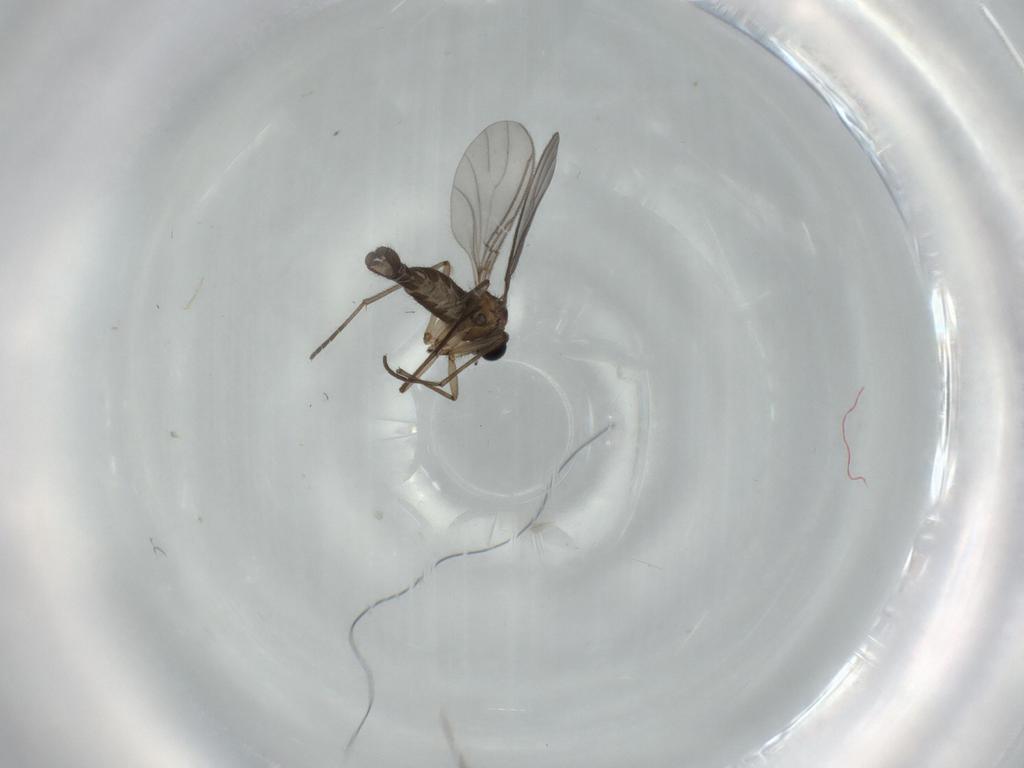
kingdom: Animalia
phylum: Arthropoda
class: Insecta
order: Diptera
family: Sciaridae
